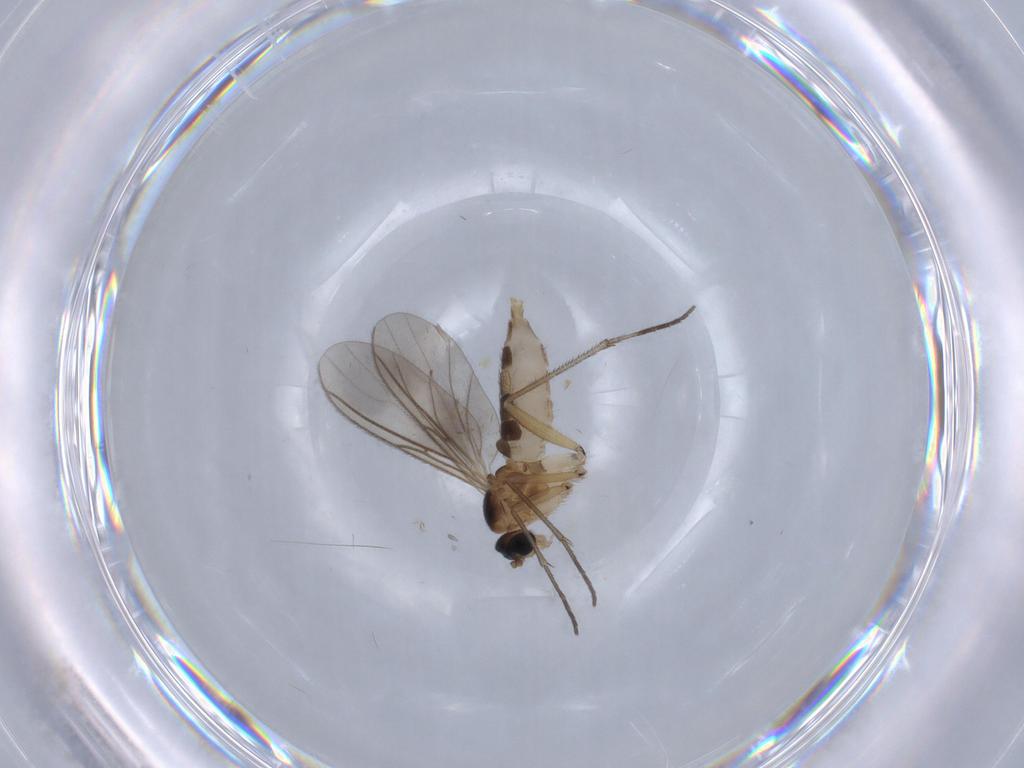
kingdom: Animalia
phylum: Arthropoda
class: Insecta
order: Diptera
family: Sciaridae
